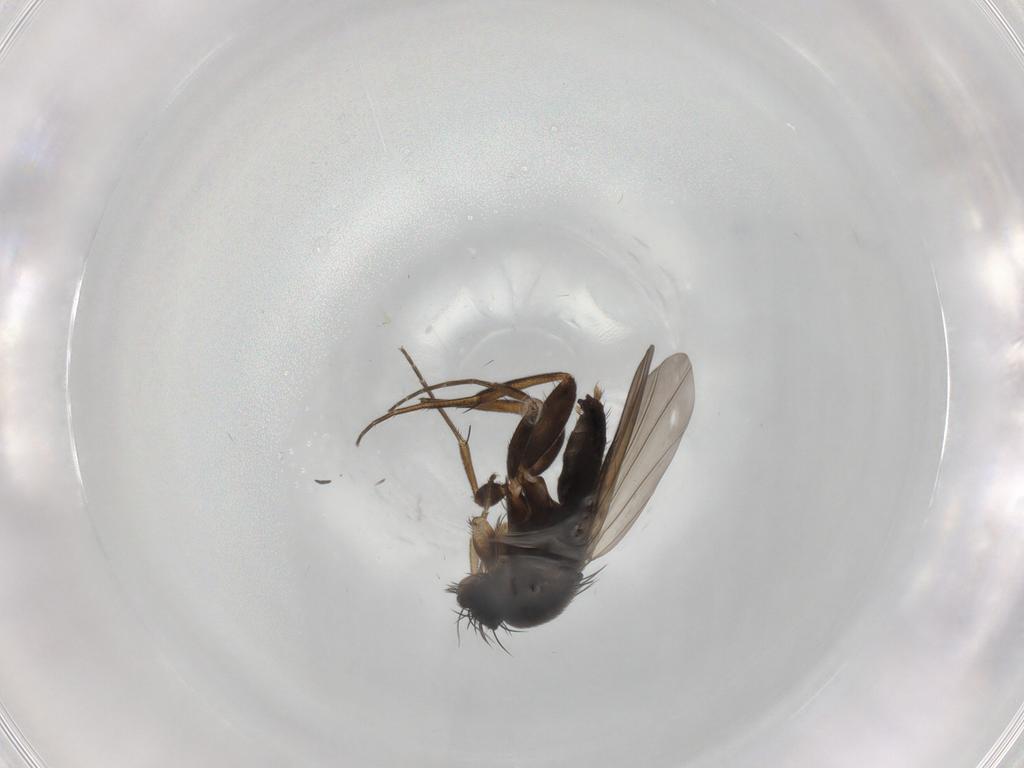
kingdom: Animalia
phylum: Arthropoda
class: Insecta
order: Diptera
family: Phoridae
